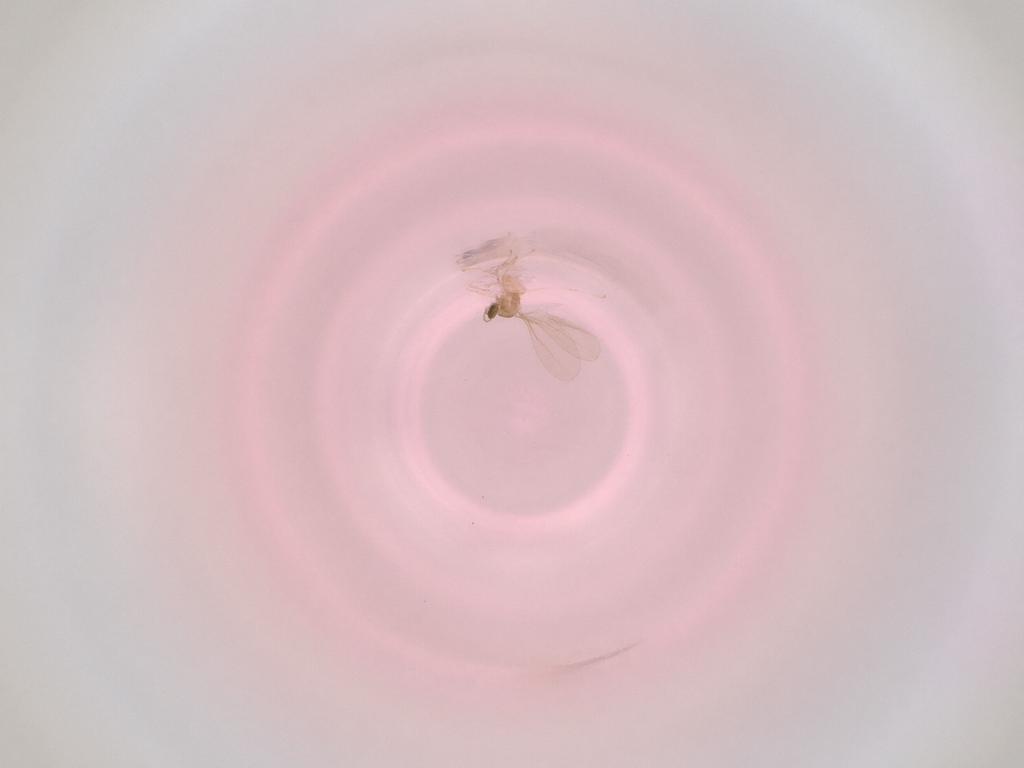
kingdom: Animalia
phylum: Arthropoda
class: Insecta
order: Diptera
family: Cecidomyiidae
